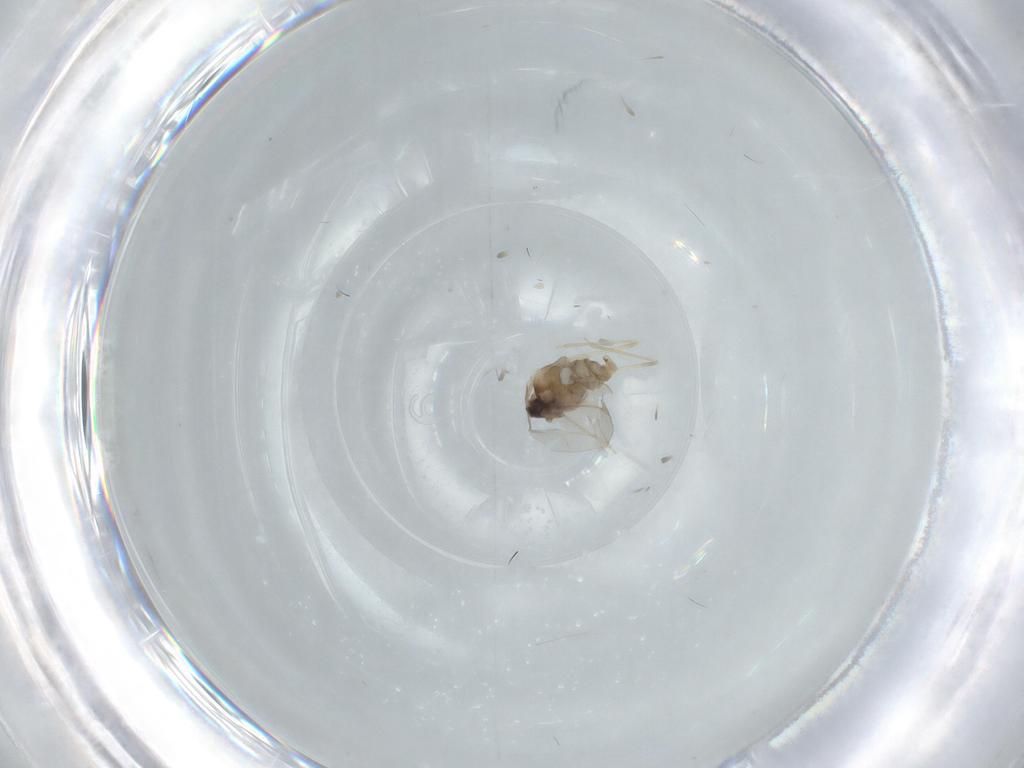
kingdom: Animalia
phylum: Arthropoda
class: Insecta
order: Diptera
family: Cecidomyiidae
